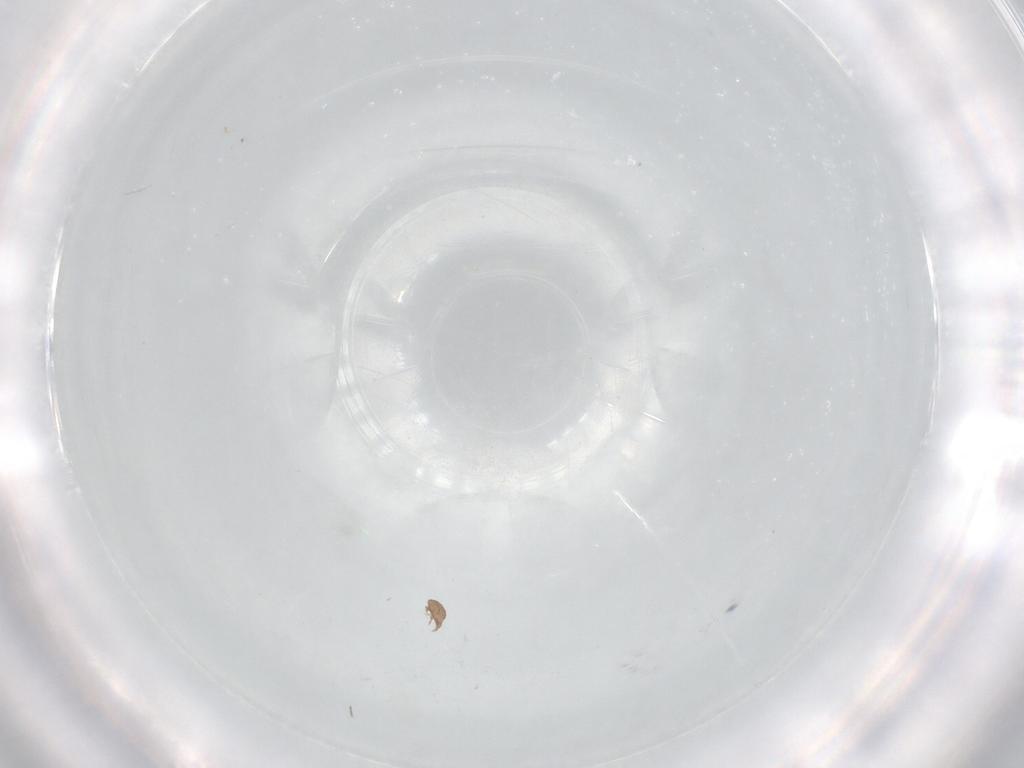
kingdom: Animalia
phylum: Arthropoda
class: Arachnida
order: Sarcoptiformes
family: Eremaeidae
